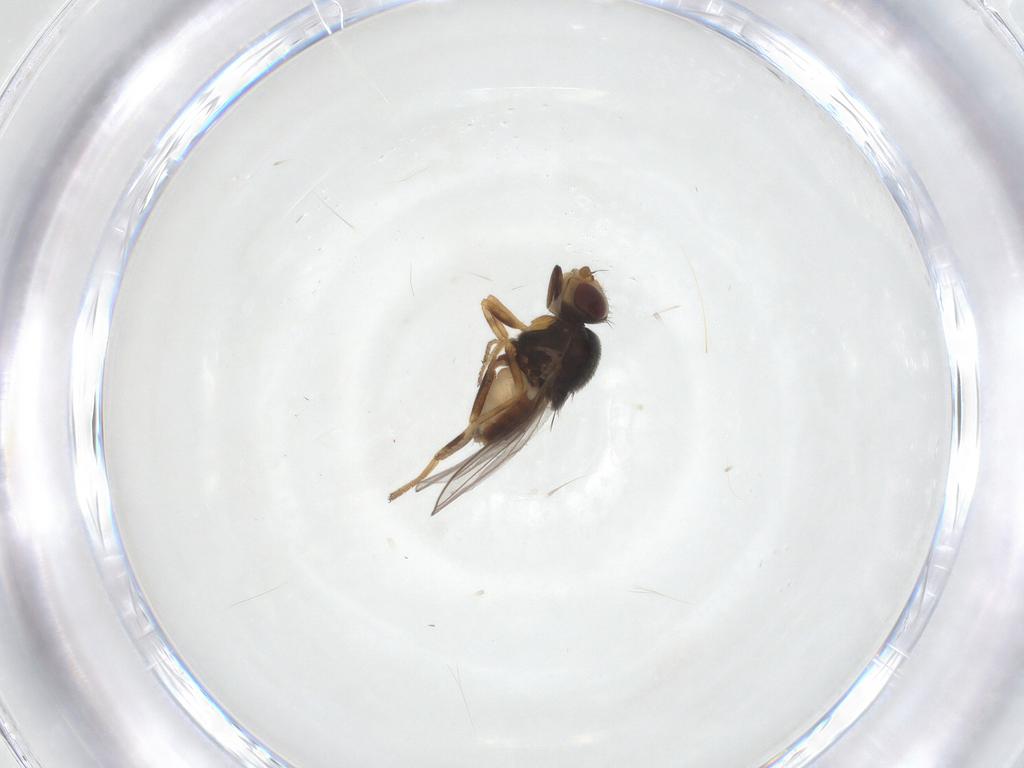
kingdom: Animalia
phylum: Arthropoda
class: Insecta
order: Diptera
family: Chloropidae
